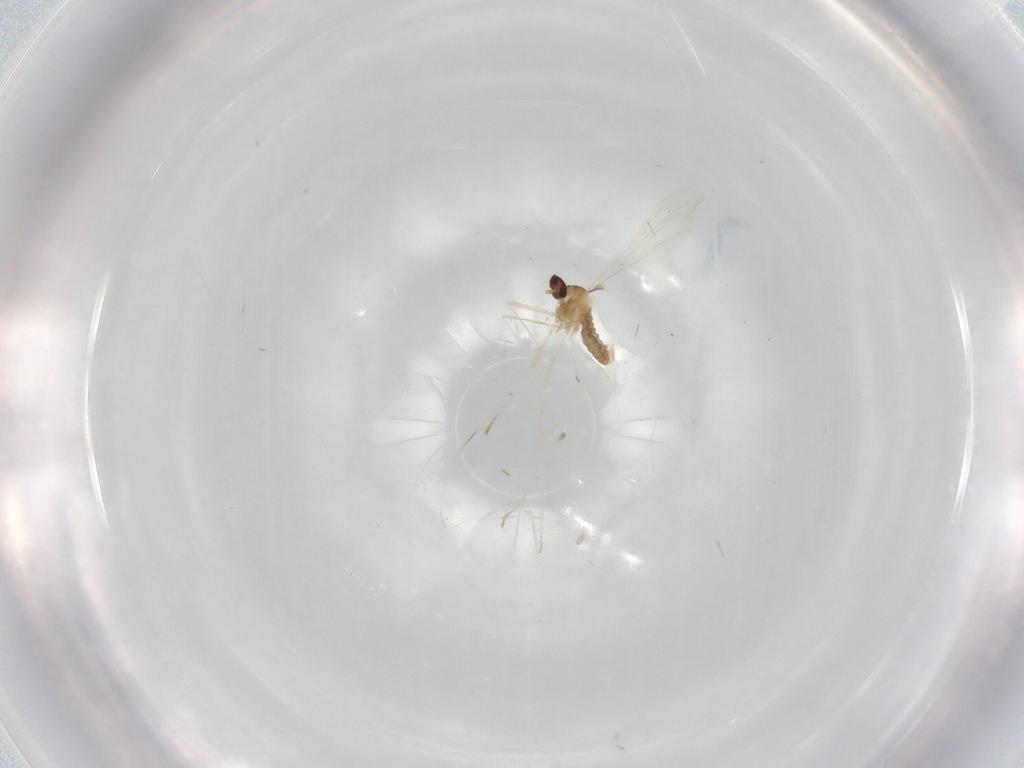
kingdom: Animalia
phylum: Arthropoda
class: Insecta
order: Diptera
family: Cecidomyiidae
